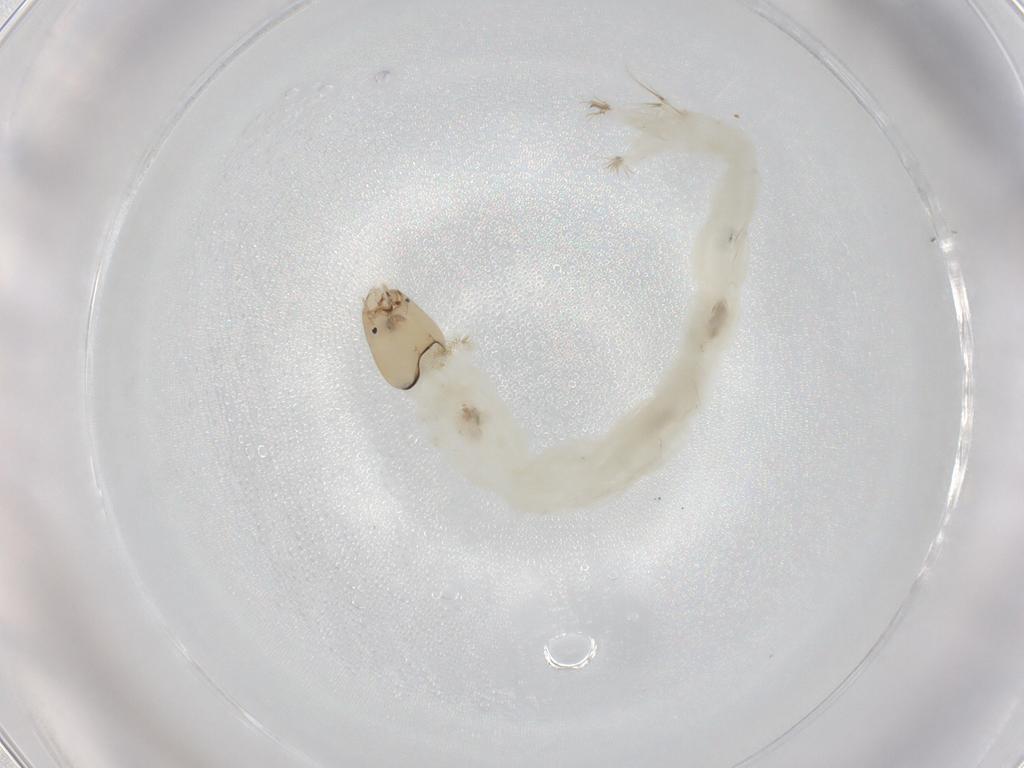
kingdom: Animalia
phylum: Arthropoda
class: Insecta
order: Diptera
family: Chironomidae
